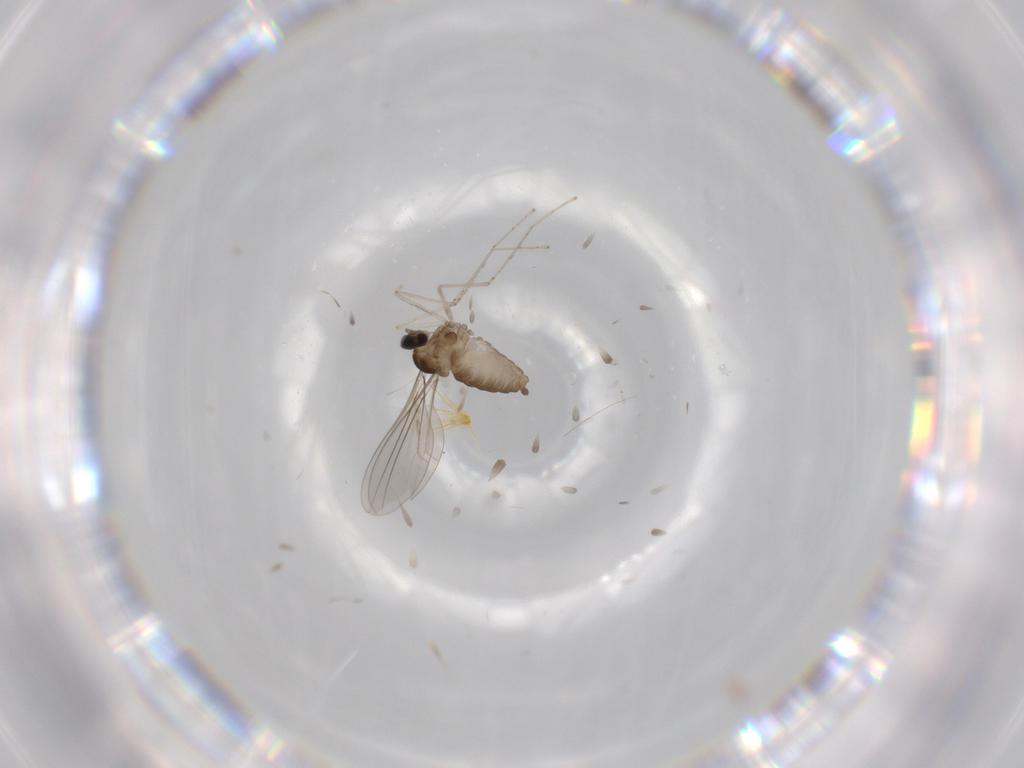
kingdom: Animalia
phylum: Arthropoda
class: Insecta
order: Diptera
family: Cecidomyiidae
